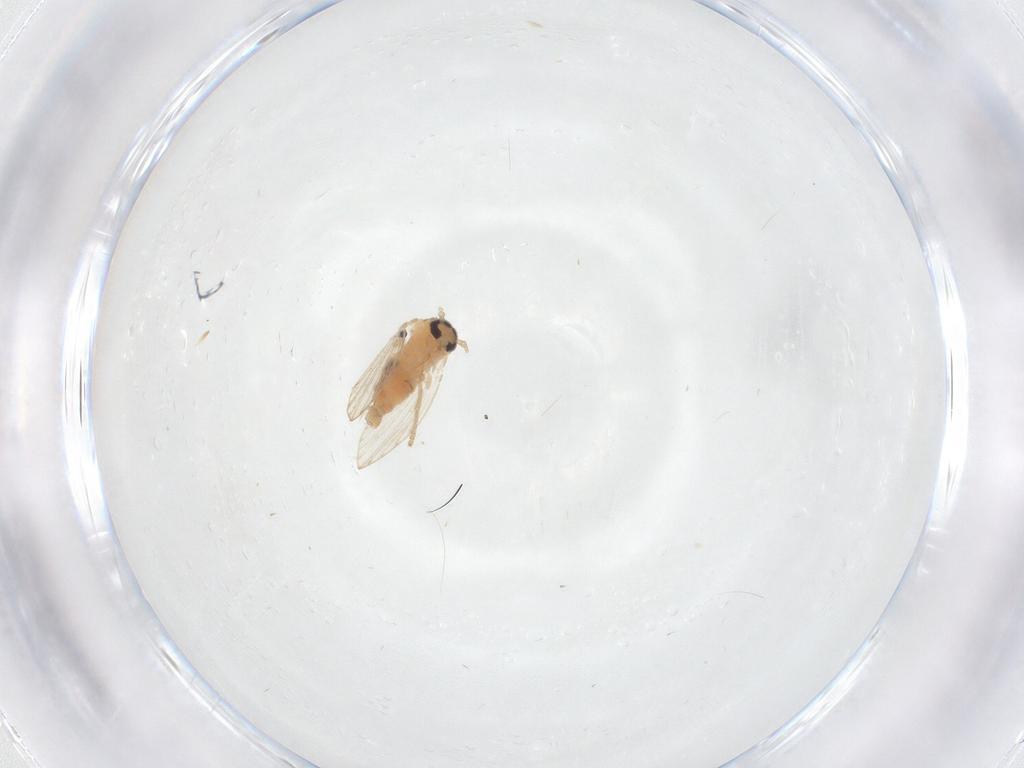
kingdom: Animalia
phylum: Arthropoda
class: Insecta
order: Diptera
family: Psychodidae
